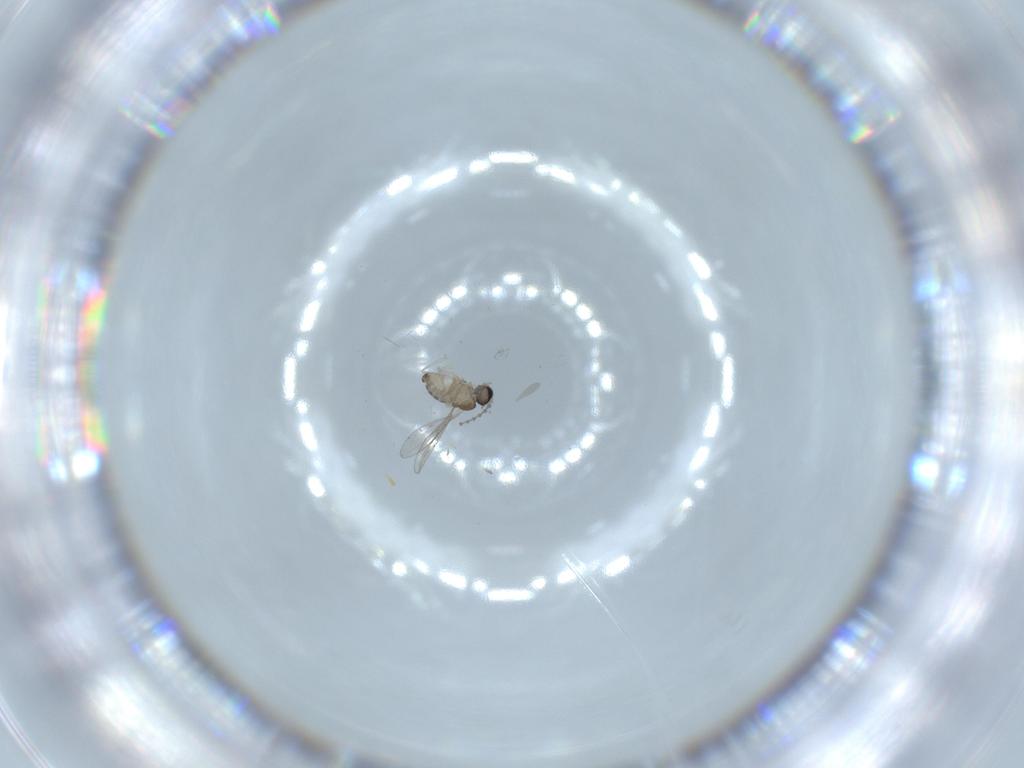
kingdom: Animalia
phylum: Arthropoda
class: Insecta
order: Diptera
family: Cecidomyiidae
